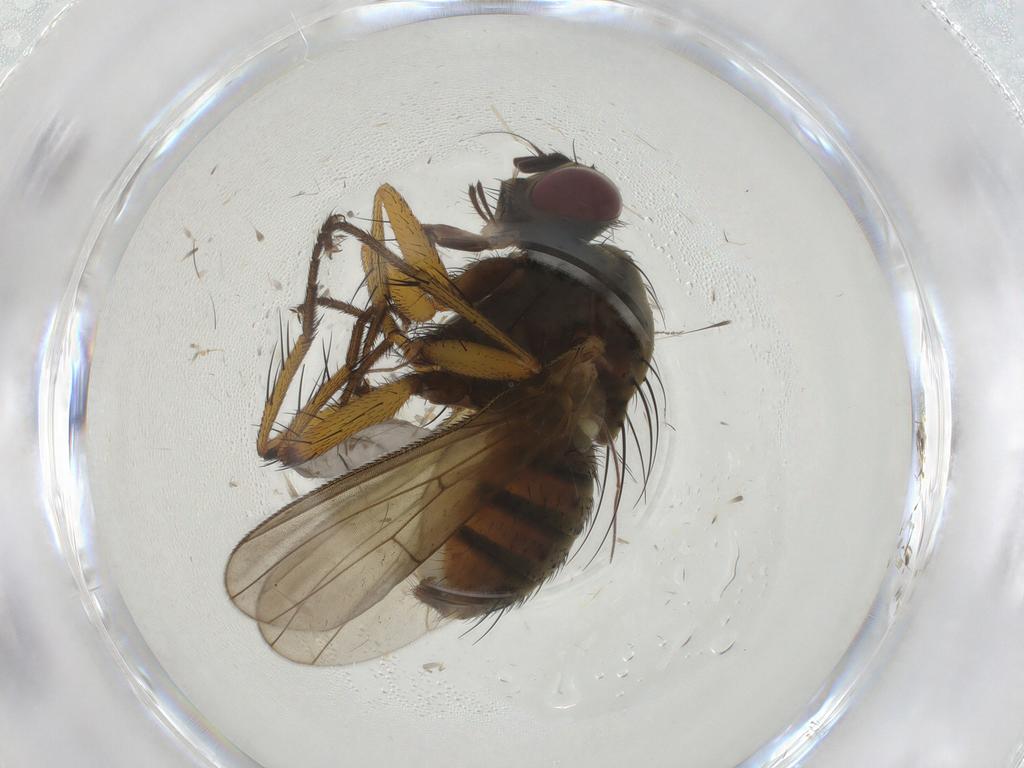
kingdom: Animalia
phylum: Arthropoda
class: Insecta
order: Diptera
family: Muscidae
